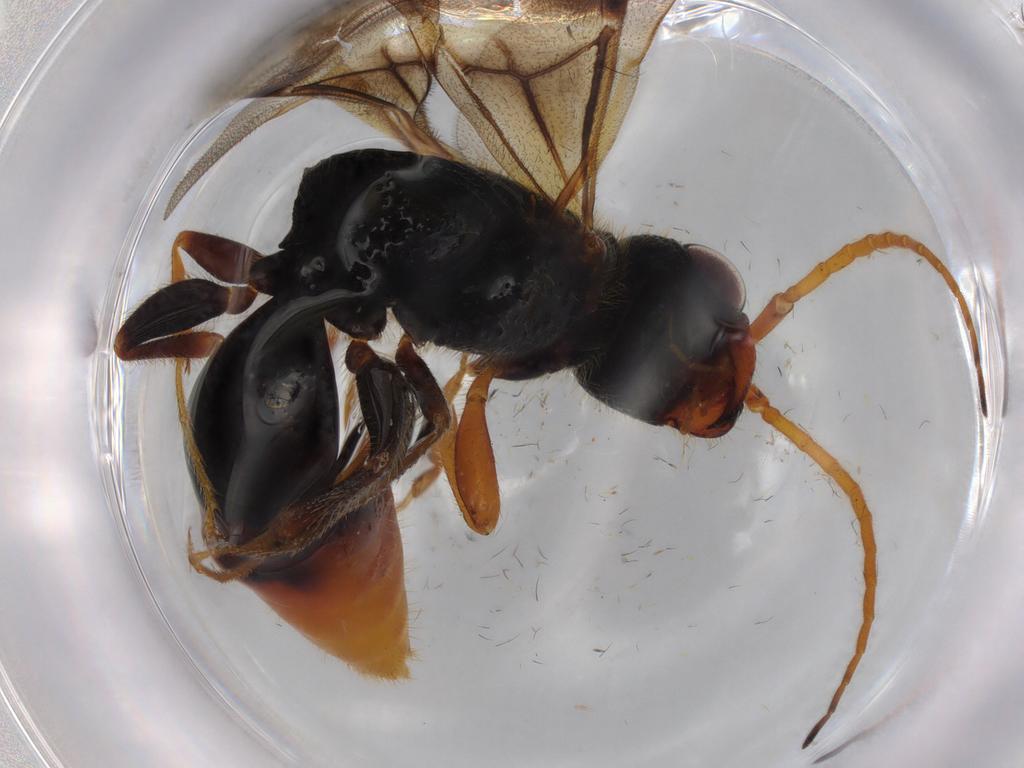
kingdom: Animalia
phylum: Arthropoda
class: Insecta
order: Hymenoptera
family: Bethylidae
